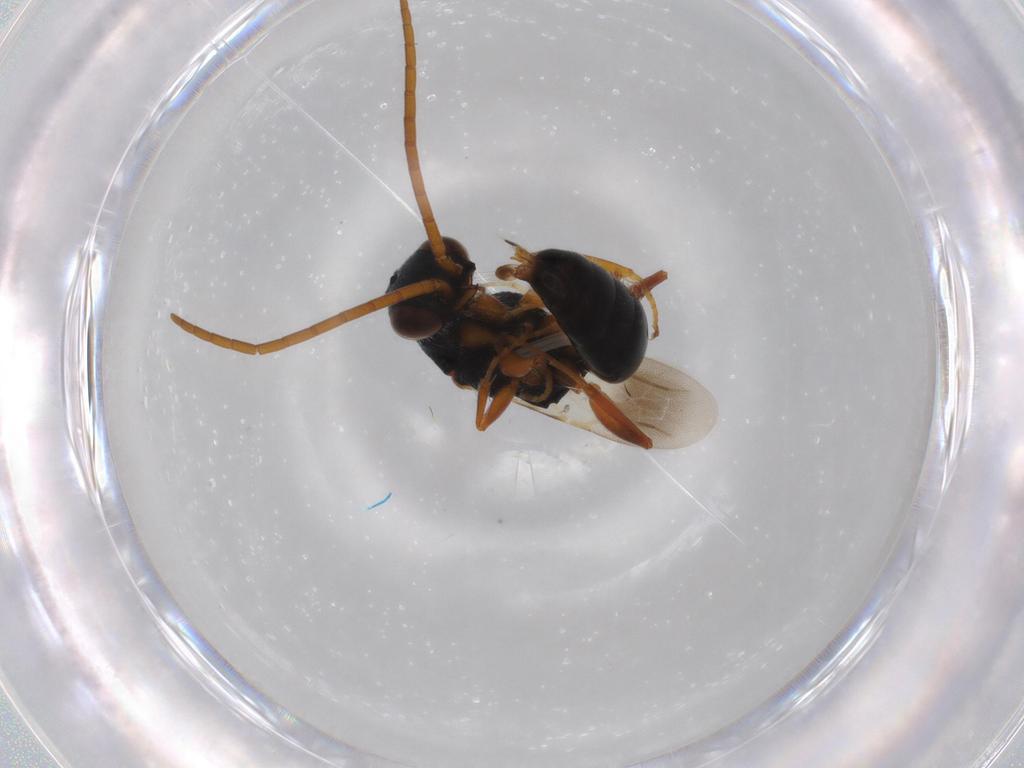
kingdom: Animalia
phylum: Arthropoda
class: Insecta
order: Hymenoptera
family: Bethylidae
